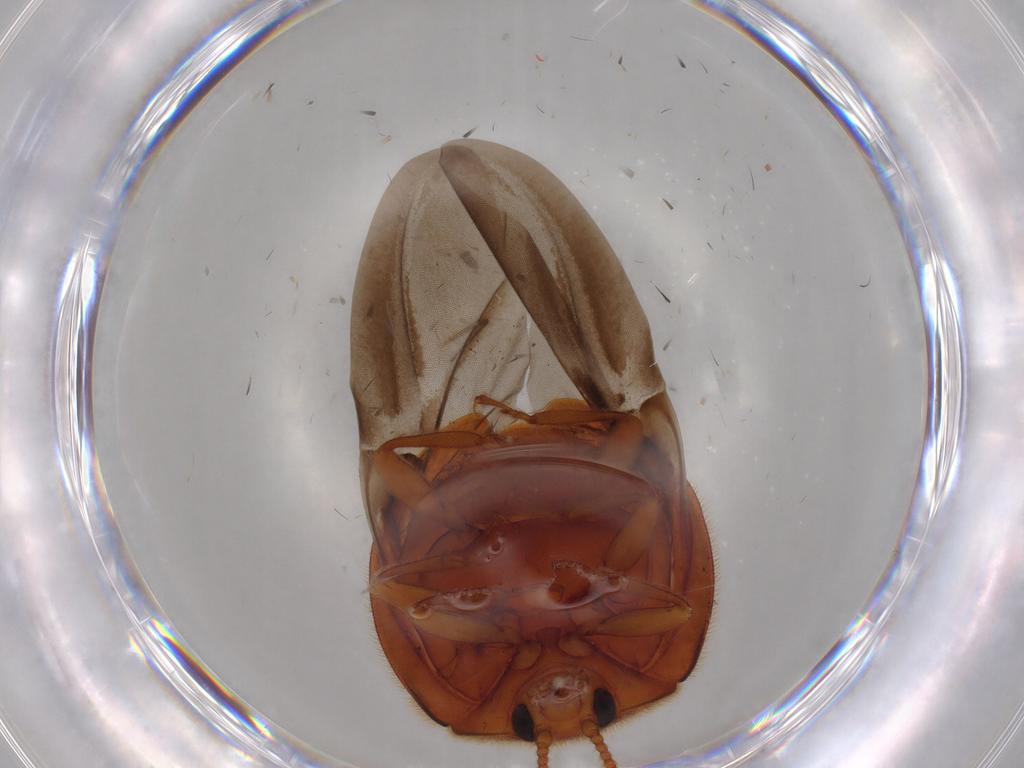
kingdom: Animalia
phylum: Arthropoda
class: Insecta
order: Coleoptera
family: Endomychidae
